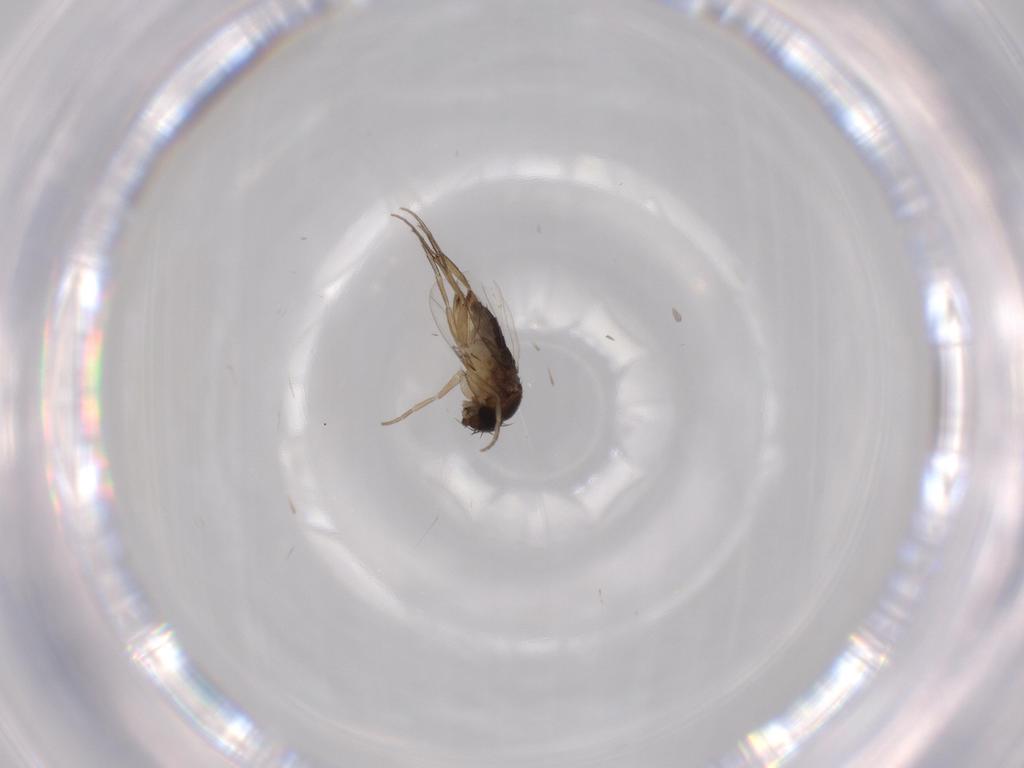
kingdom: Animalia
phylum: Arthropoda
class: Insecta
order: Diptera
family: Phoridae
